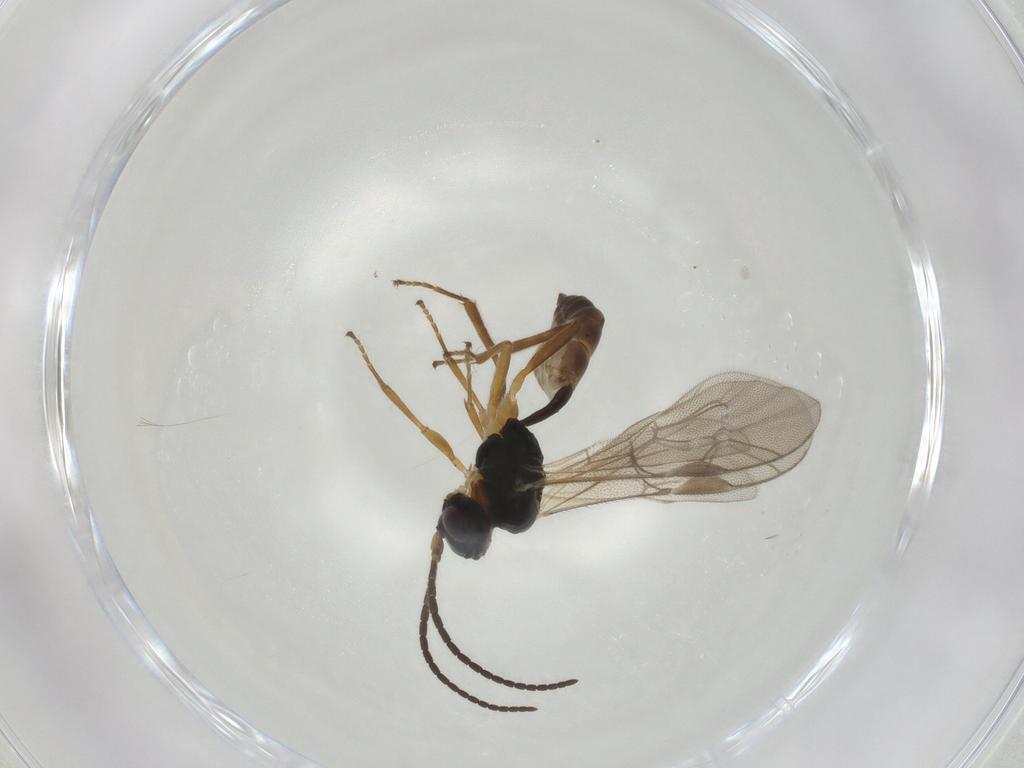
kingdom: Animalia
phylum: Arthropoda
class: Insecta
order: Hymenoptera
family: Ichneumonidae
